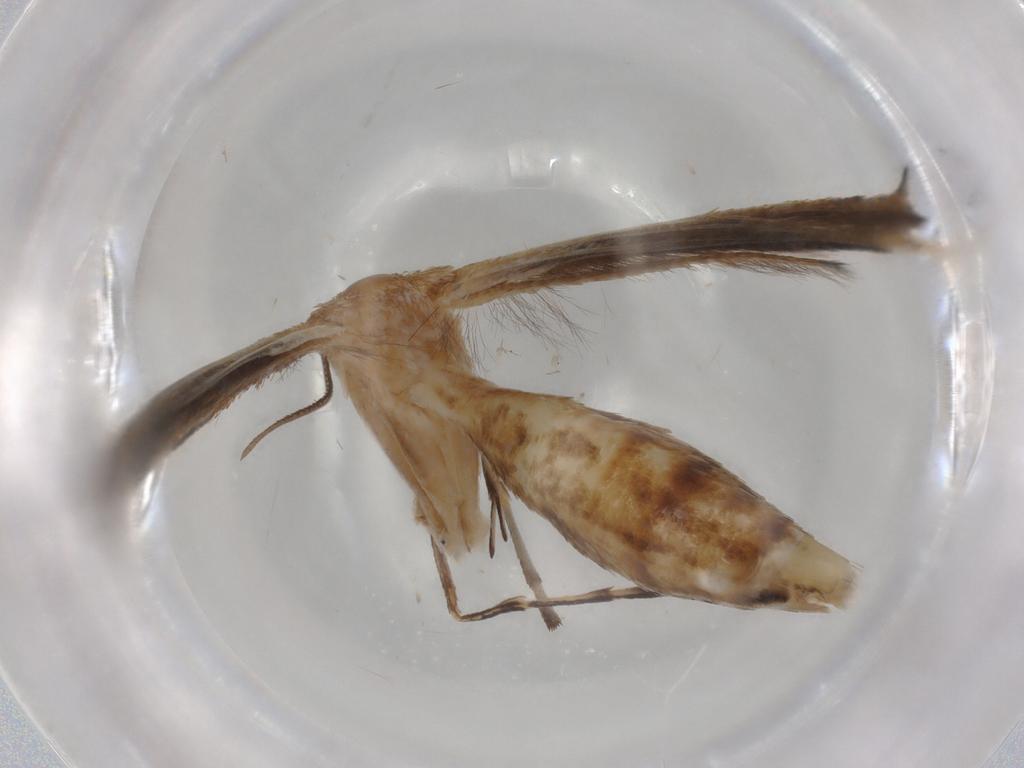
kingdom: Animalia
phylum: Arthropoda
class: Insecta
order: Lepidoptera
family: Pterophoridae
